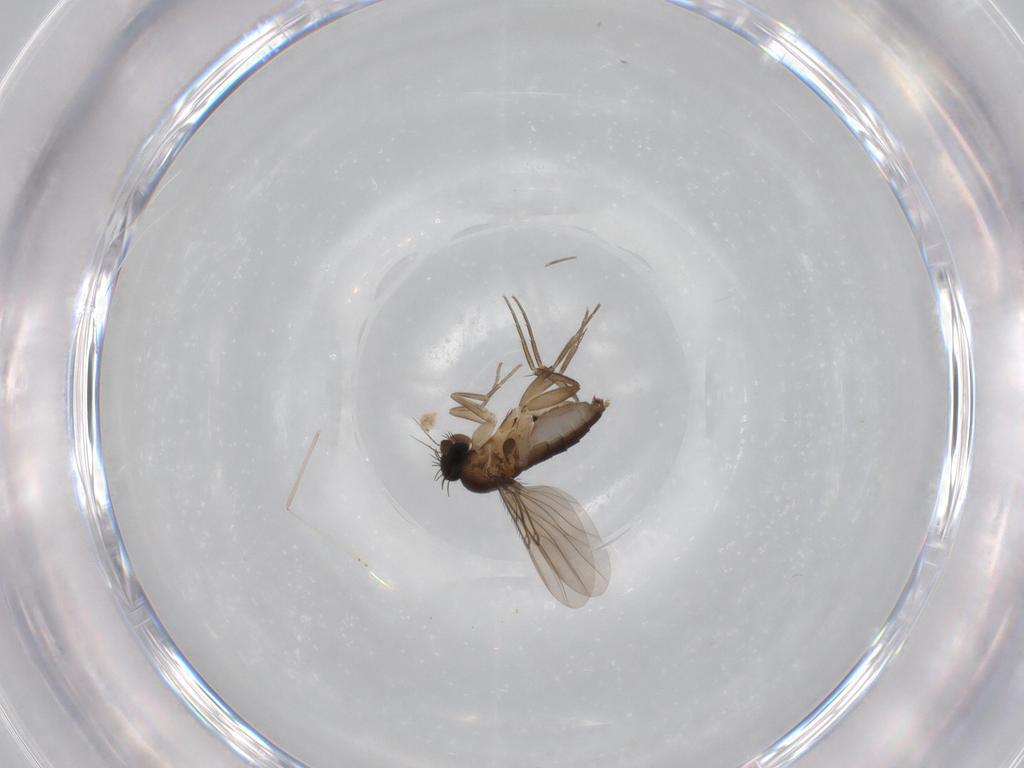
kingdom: Animalia
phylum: Arthropoda
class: Insecta
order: Diptera
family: Phoridae
